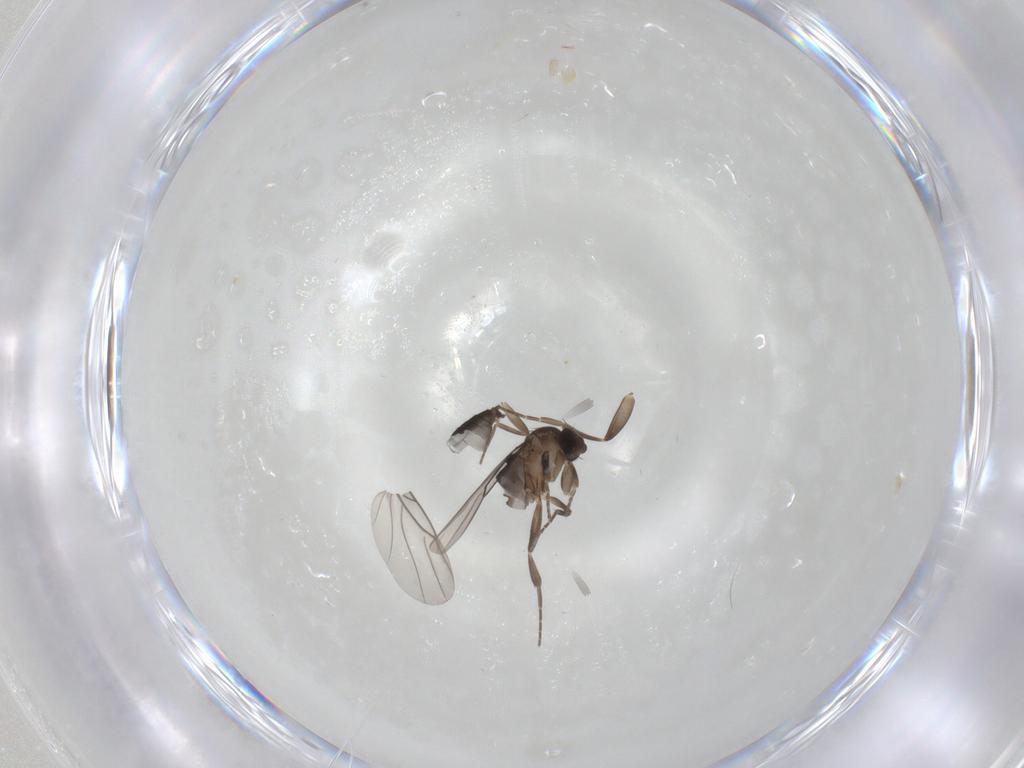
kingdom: Animalia
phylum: Arthropoda
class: Insecta
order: Diptera
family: Phoridae
